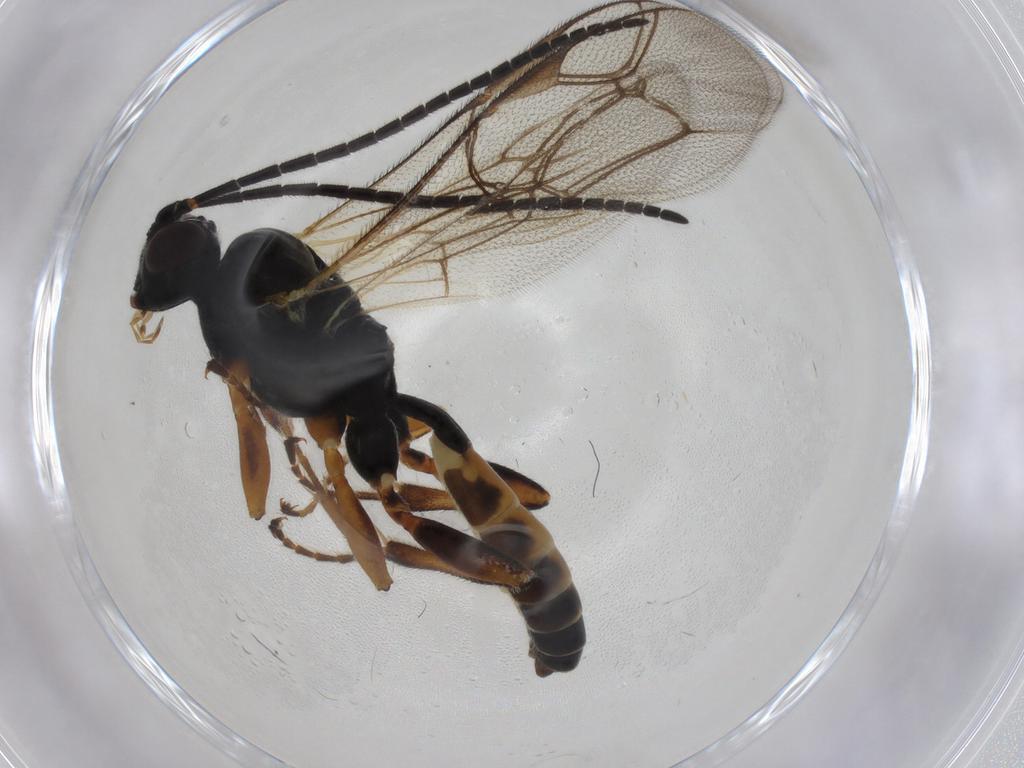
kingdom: Animalia
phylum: Arthropoda
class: Insecta
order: Hymenoptera
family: Ichneumonidae
